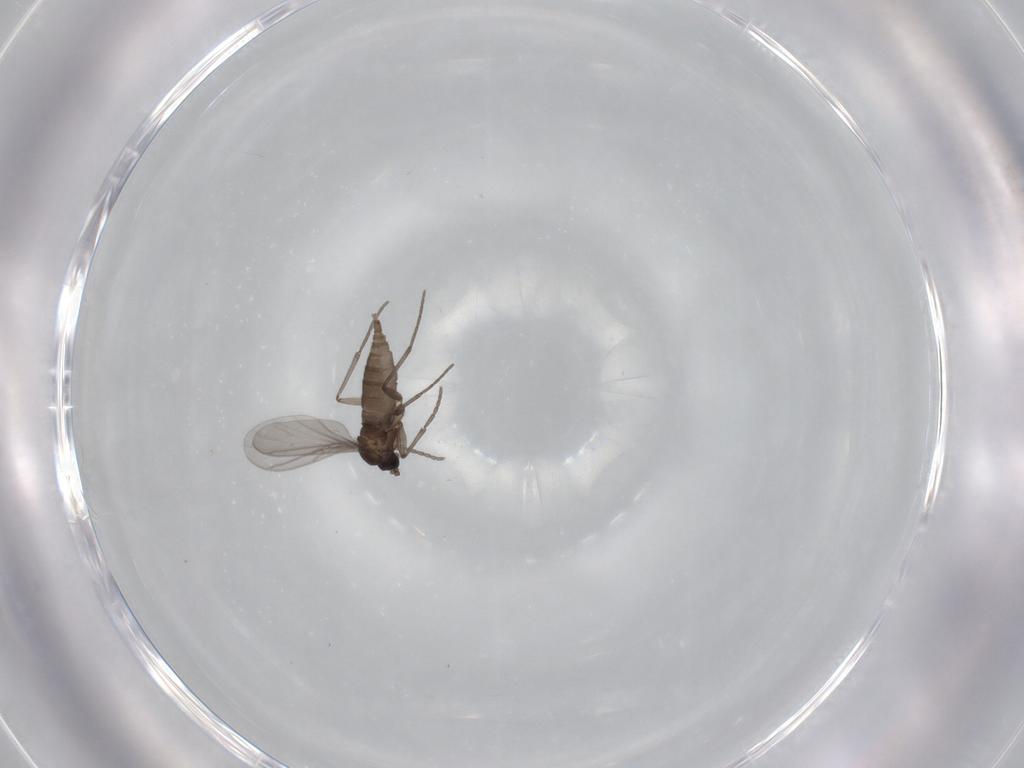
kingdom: Animalia
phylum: Arthropoda
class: Insecta
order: Diptera
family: Sciaridae
